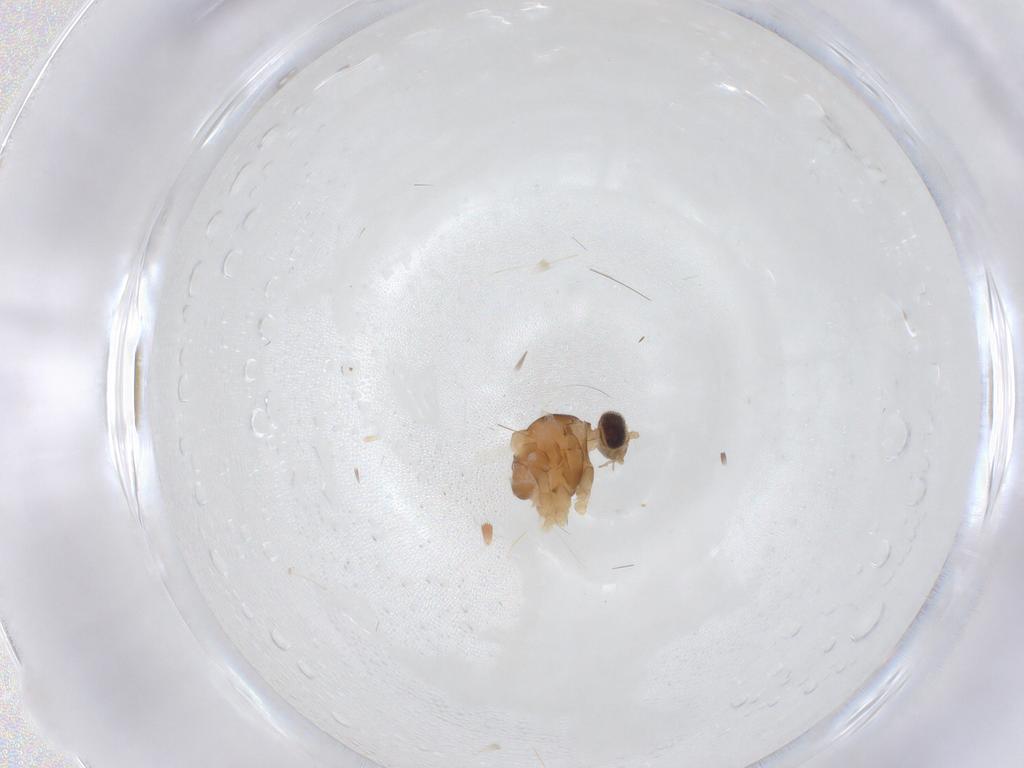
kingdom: Animalia
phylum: Arthropoda
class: Insecta
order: Diptera
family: Cecidomyiidae
